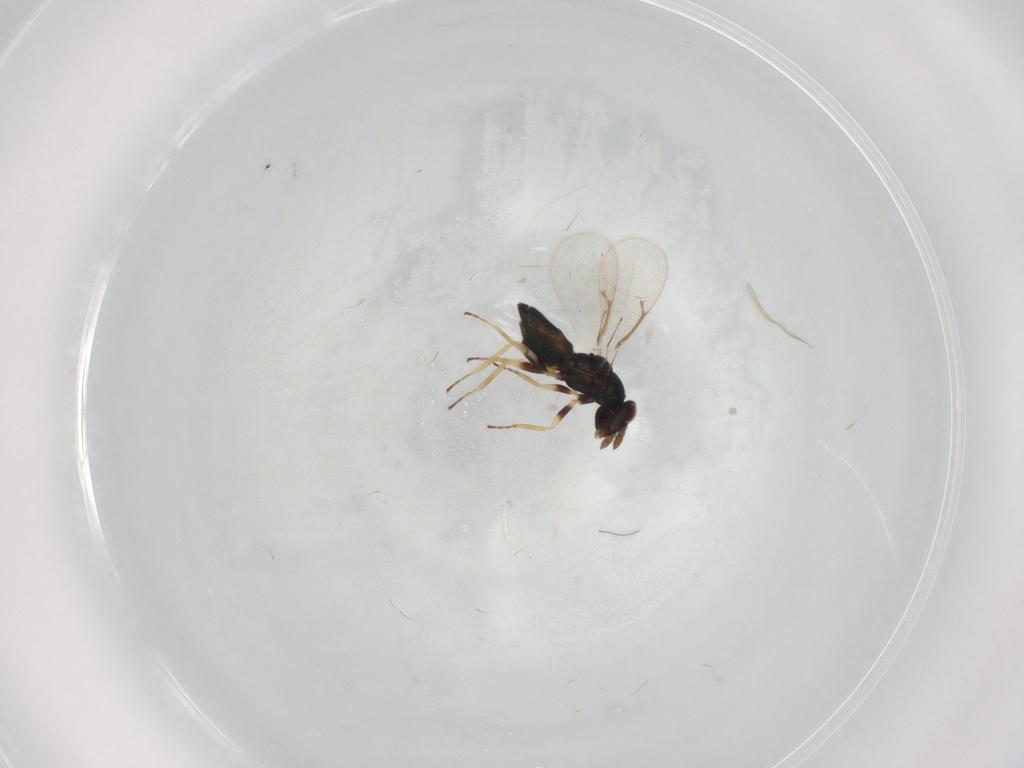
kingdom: Animalia
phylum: Arthropoda
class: Insecta
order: Hymenoptera
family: Eulophidae
